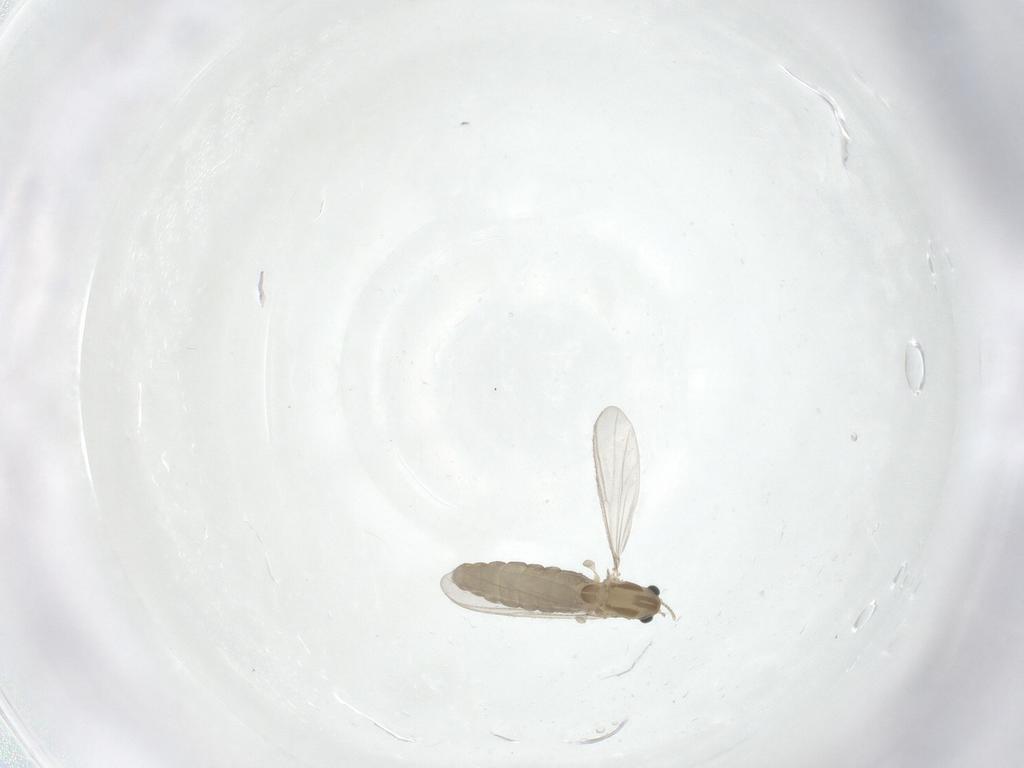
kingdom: Animalia
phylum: Arthropoda
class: Insecta
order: Diptera
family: Chironomidae
